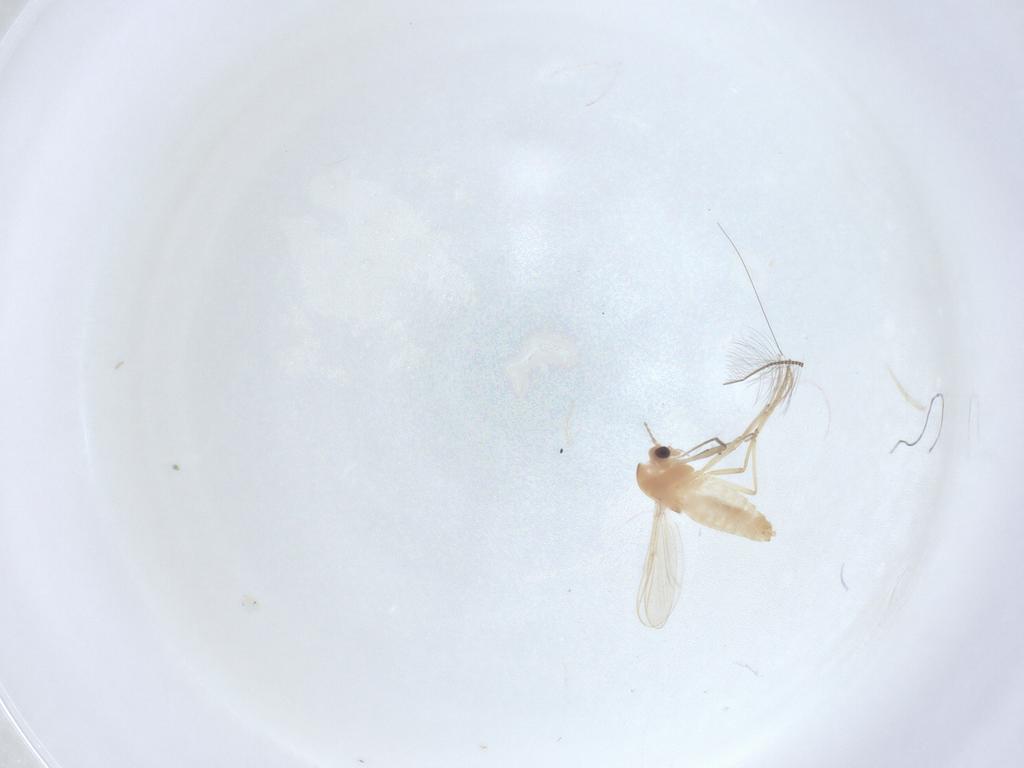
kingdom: Animalia
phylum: Arthropoda
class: Insecta
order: Diptera
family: Chironomidae
